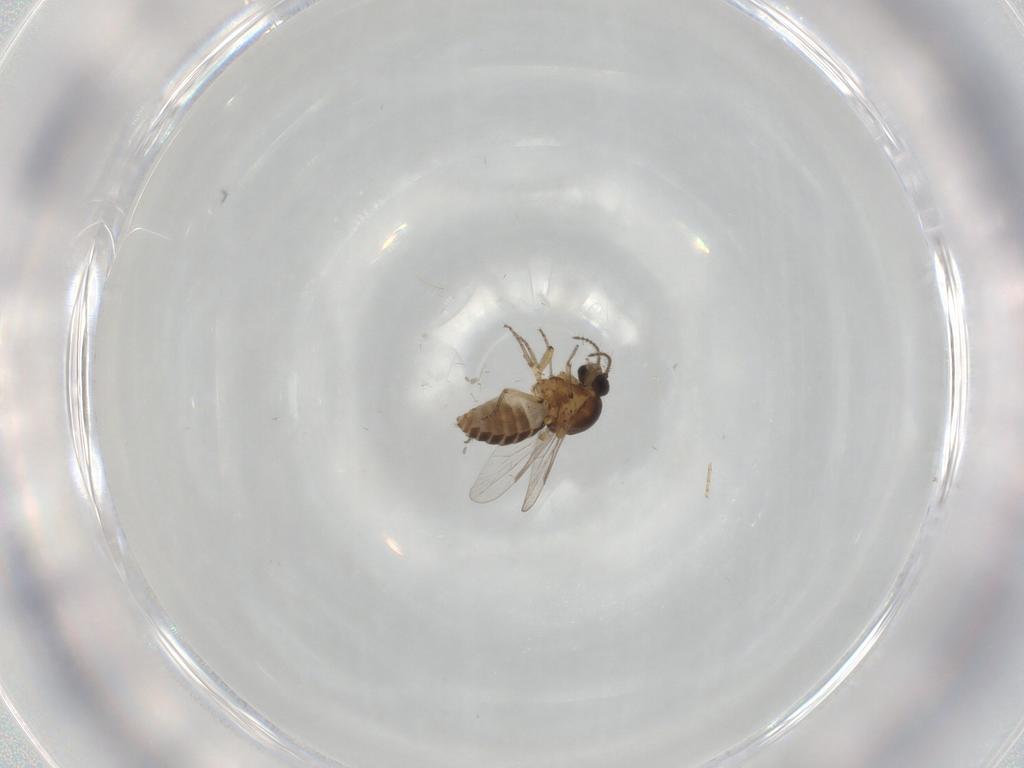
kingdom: Animalia
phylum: Arthropoda
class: Insecta
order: Diptera
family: Ceratopogonidae
